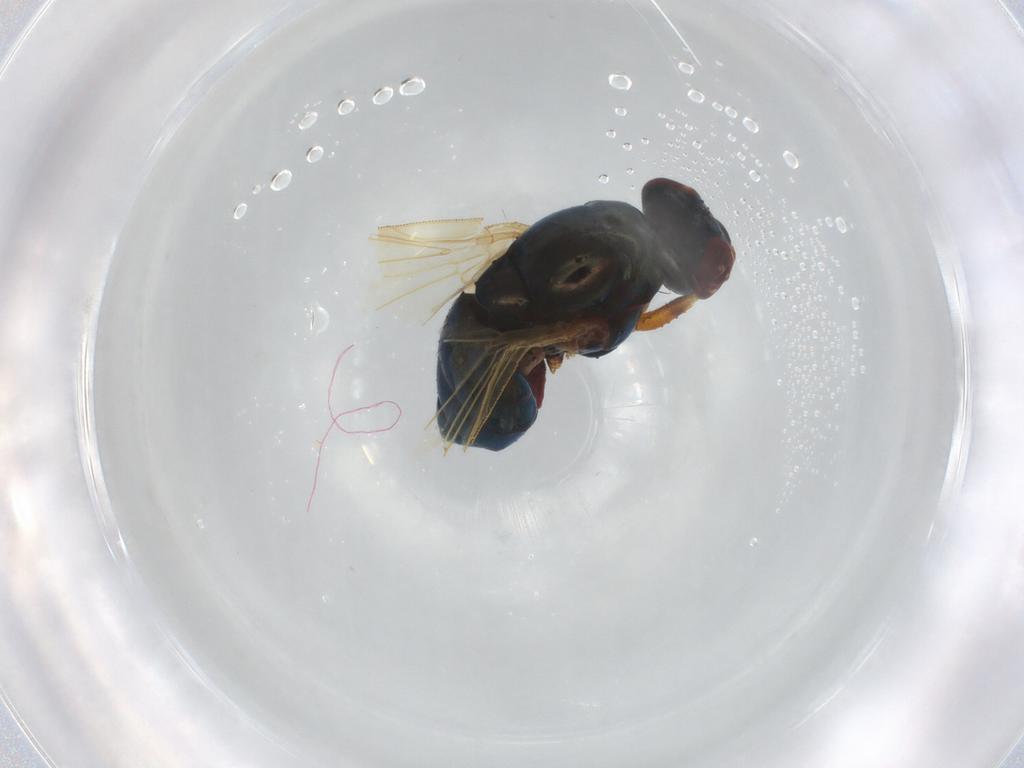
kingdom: Animalia
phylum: Arthropoda
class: Insecta
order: Diptera
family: Lauxaniidae
